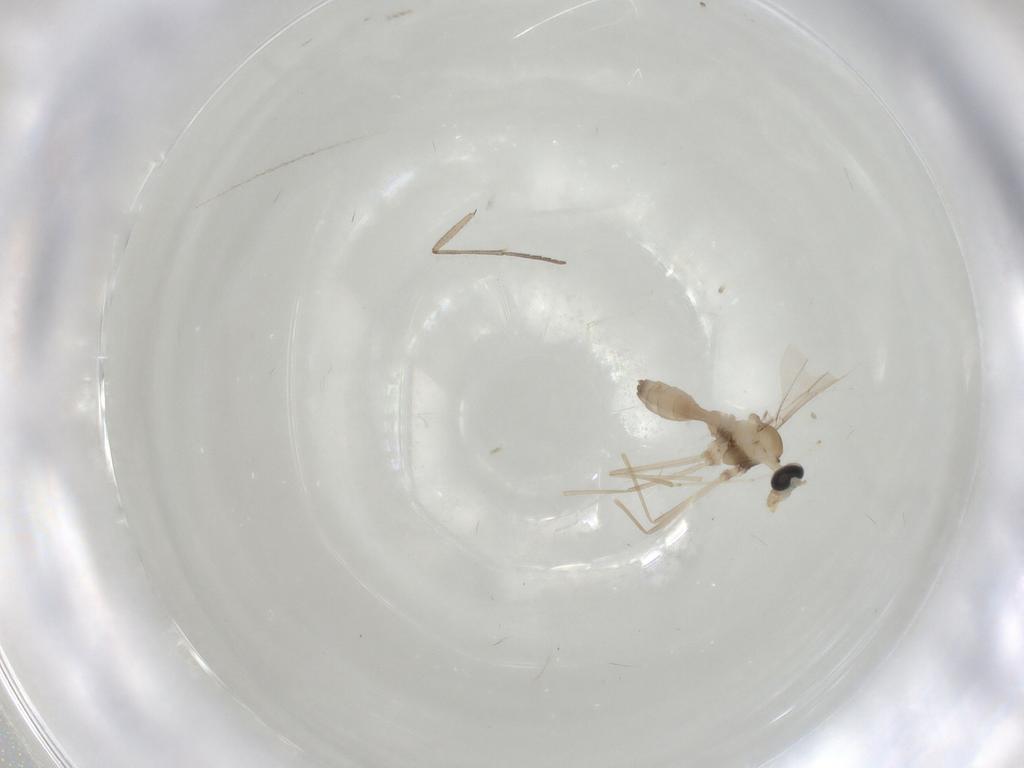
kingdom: Animalia
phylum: Arthropoda
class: Insecta
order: Diptera
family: Cecidomyiidae
